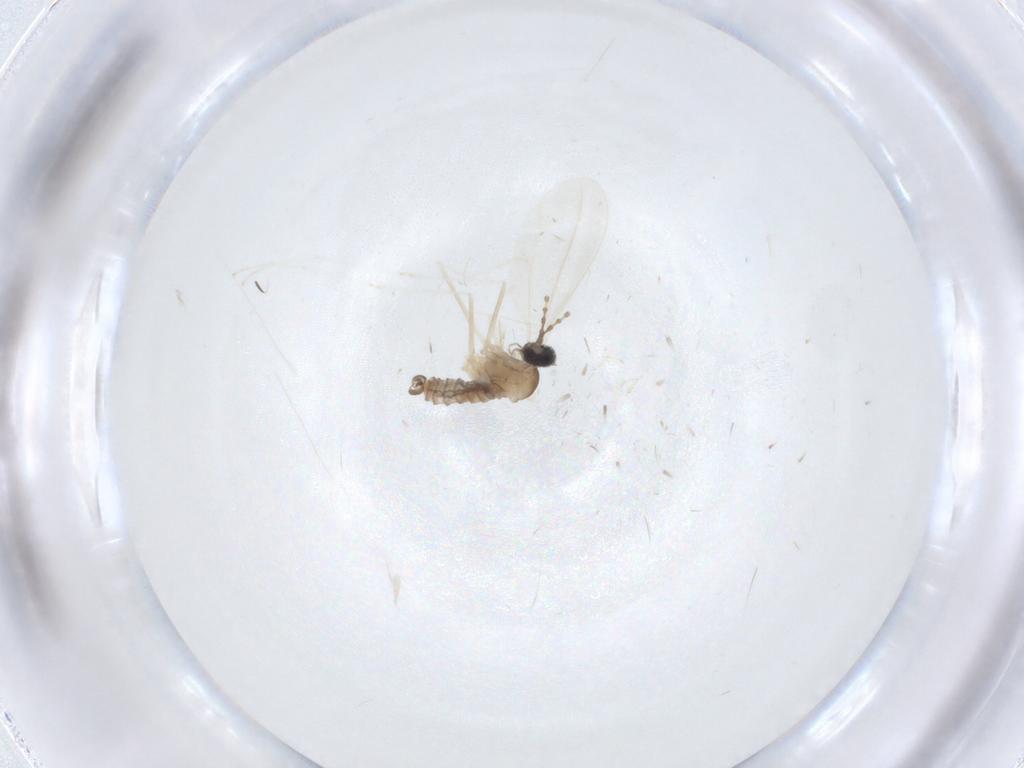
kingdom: Animalia
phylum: Arthropoda
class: Insecta
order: Diptera
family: Cecidomyiidae
